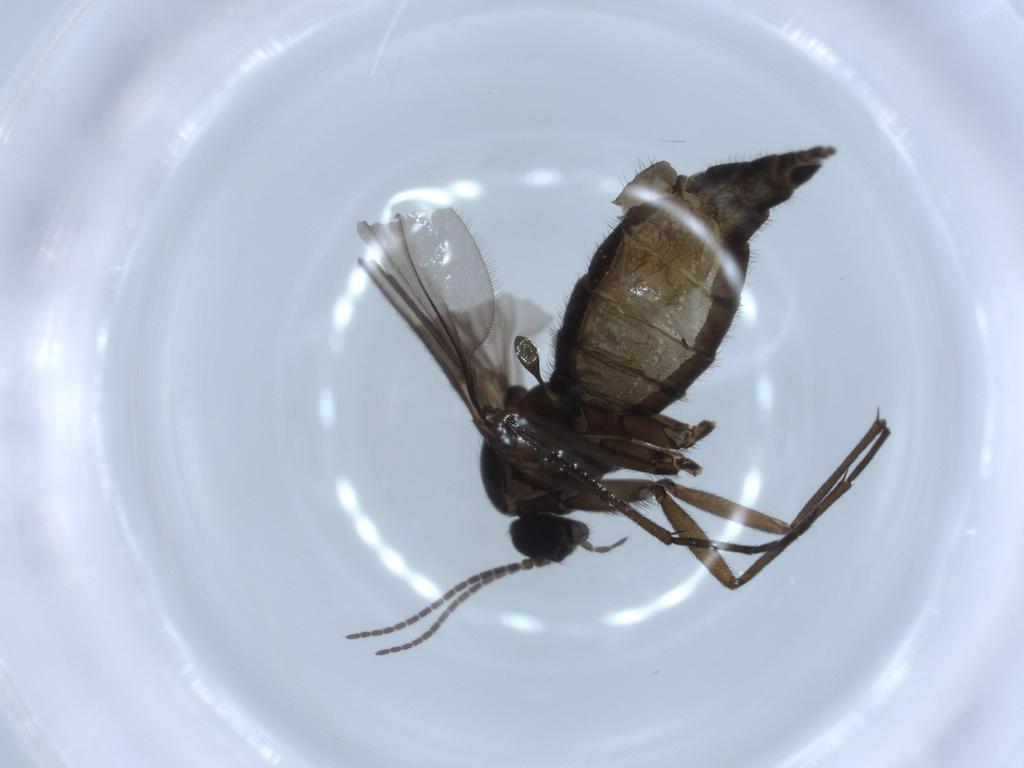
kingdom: Animalia
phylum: Arthropoda
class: Insecta
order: Diptera
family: Sciaridae
